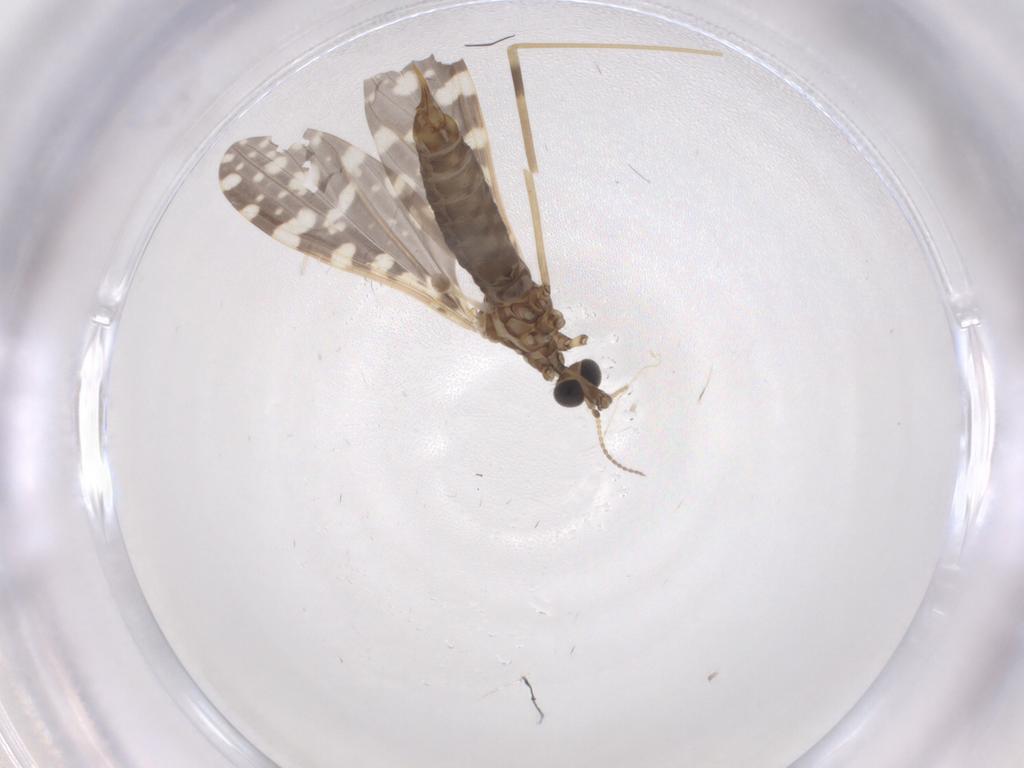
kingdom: Animalia
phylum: Arthropoda
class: Insecta
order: Diptera
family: Limoniidae
